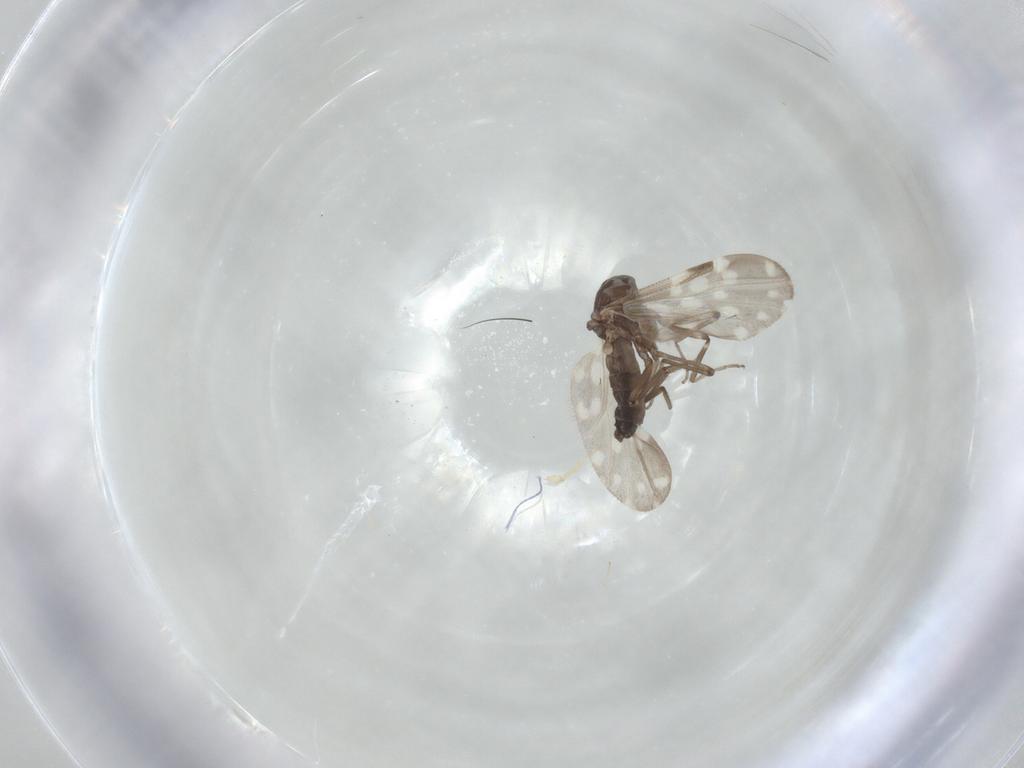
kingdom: Animalia
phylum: Arthropoda
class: Insecta
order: Diptera
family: Ceratopogonidae
